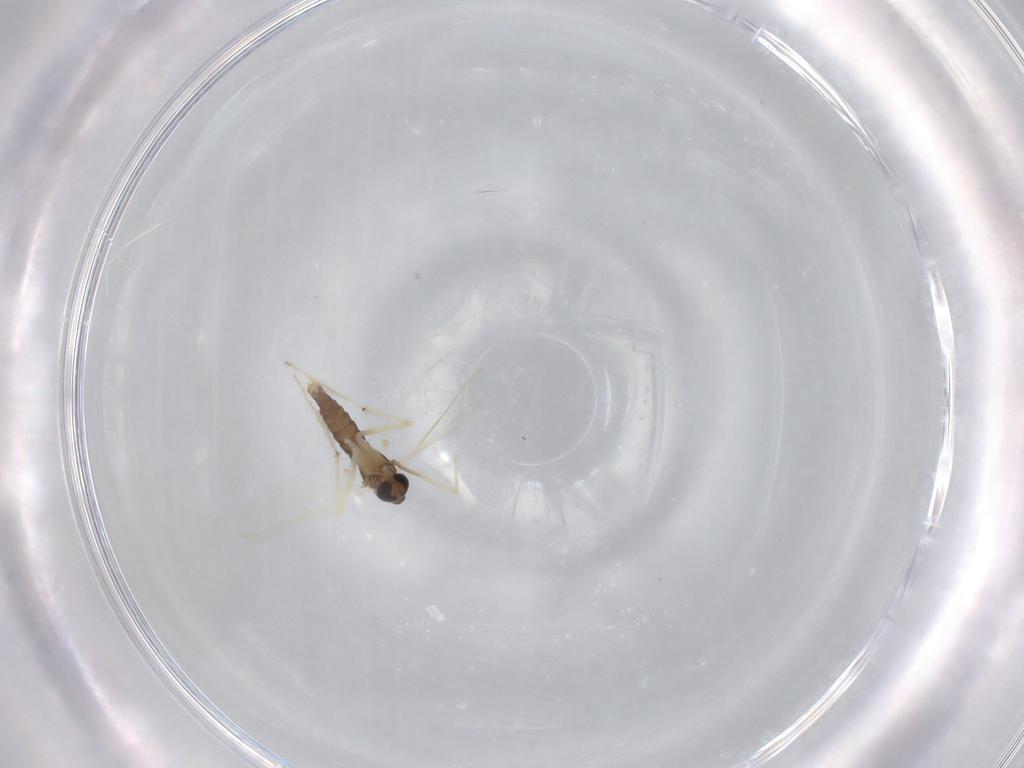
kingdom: Animalia
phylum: Arthropoda
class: Insecta
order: Diptera
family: Chironomidae
